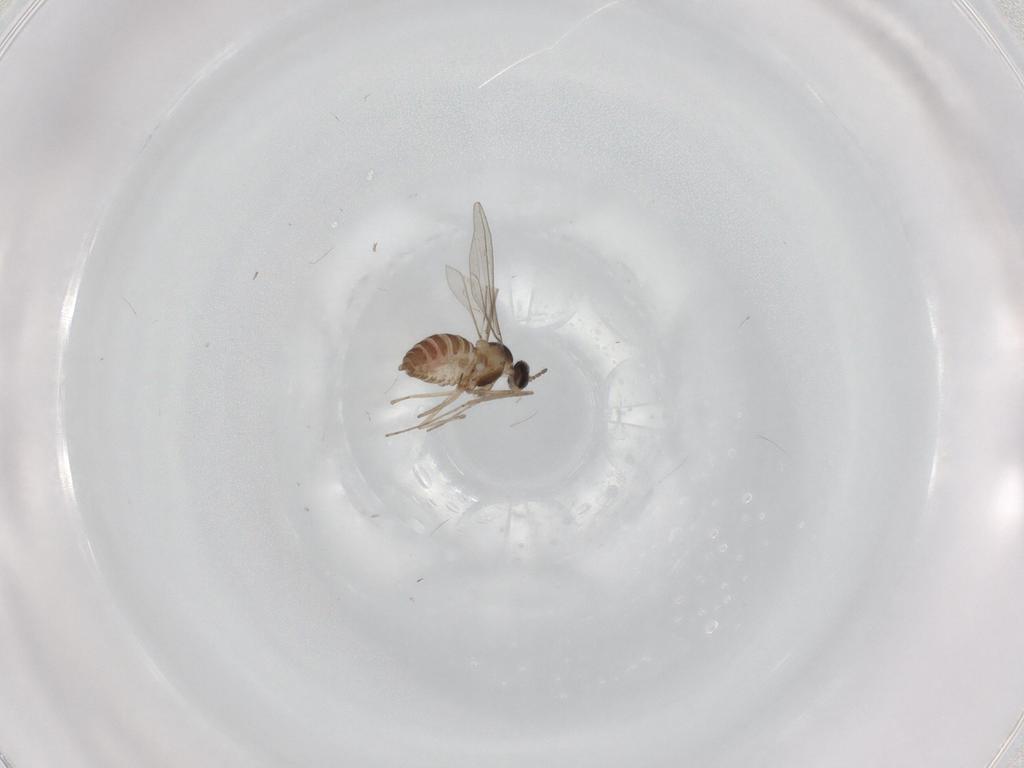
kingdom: Animalia
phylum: Arthropoda
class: Insecta
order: Diptera
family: Cecidomyiidae
